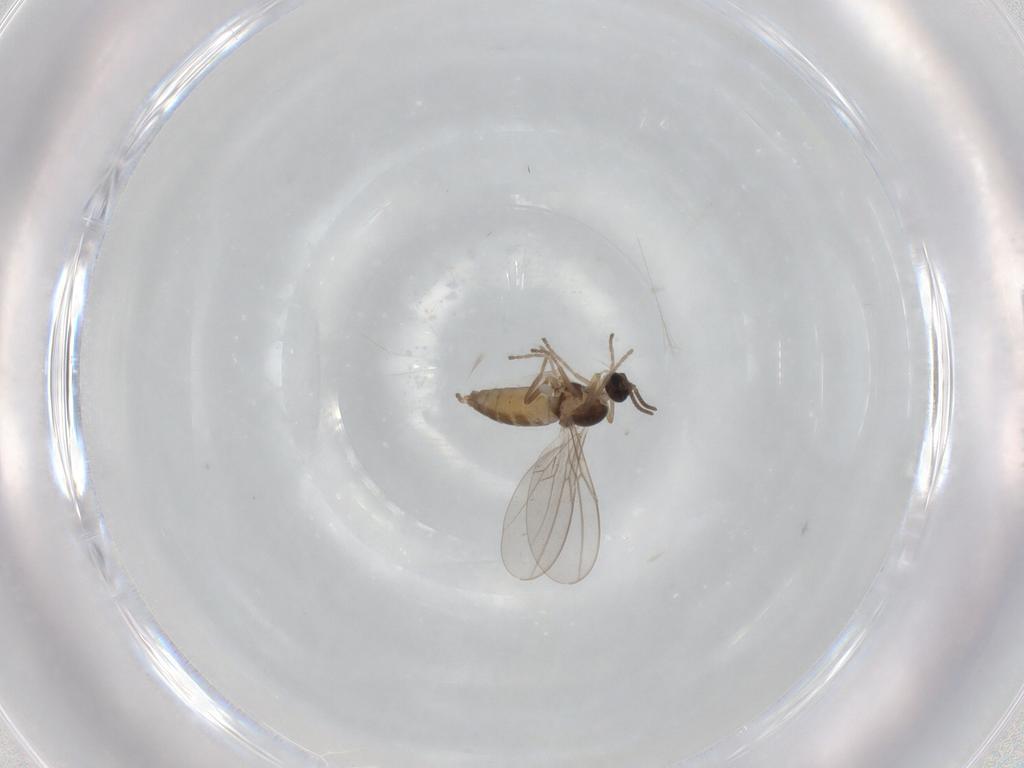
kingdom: Animalia
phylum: Arthropoda
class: Insecta
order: Diptera
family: Cecidomyiidae
